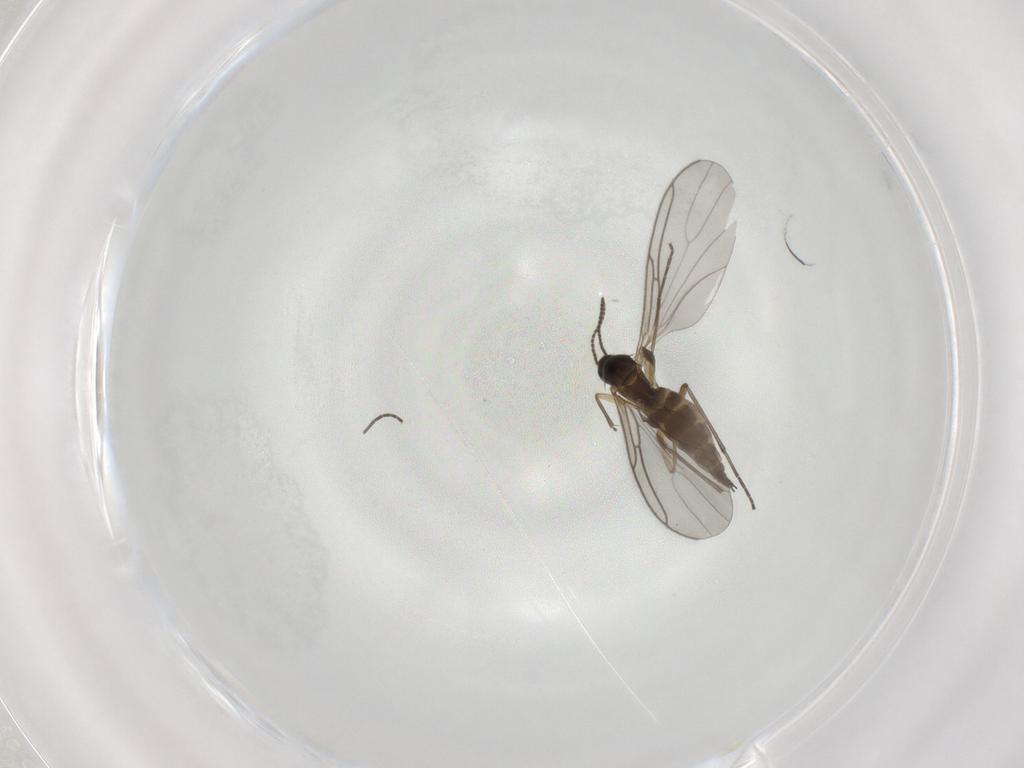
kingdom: Animalia
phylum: Arthropoda
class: Insecta
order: Diptera
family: Sciaridae
